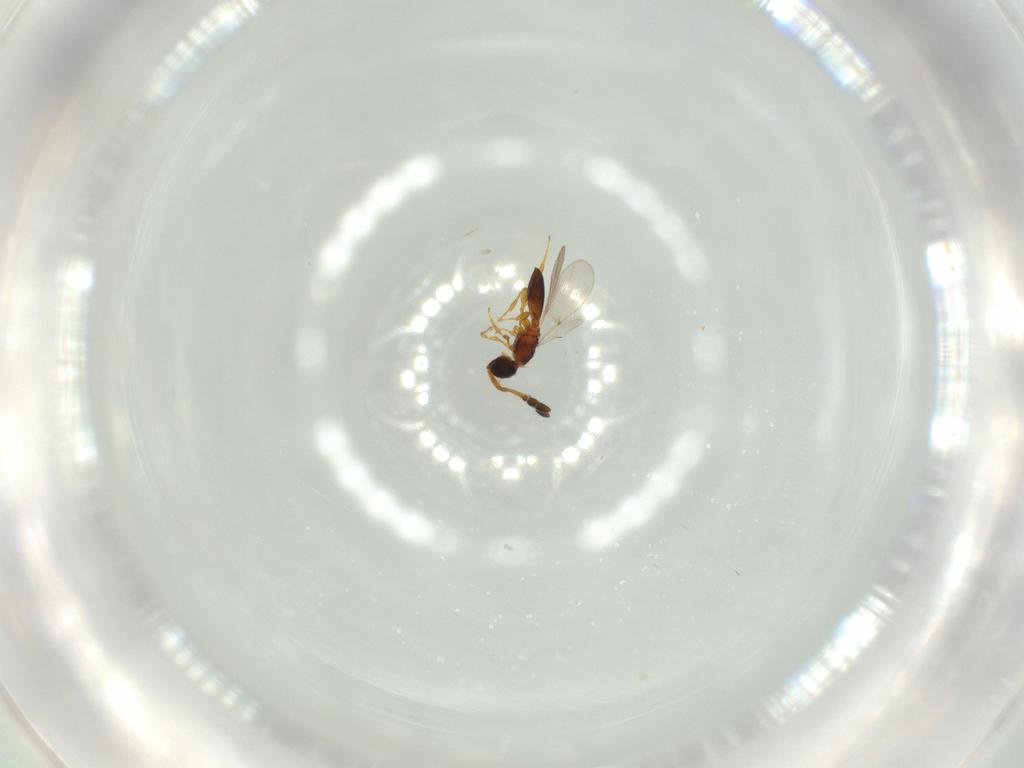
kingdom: Animalia
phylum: Arthropoda
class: Insecta
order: Hymenoptera
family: Diapriidae
